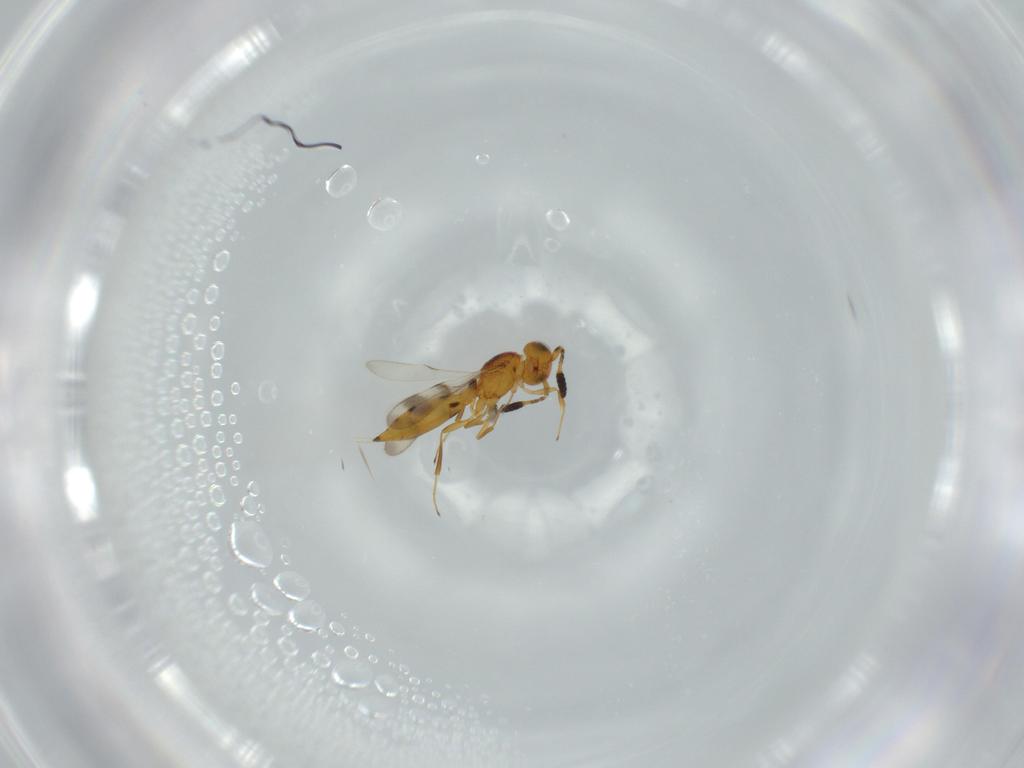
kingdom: Animalia
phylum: Arthropoda
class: Insecta
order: Hymenoptera
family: Scelionidae
